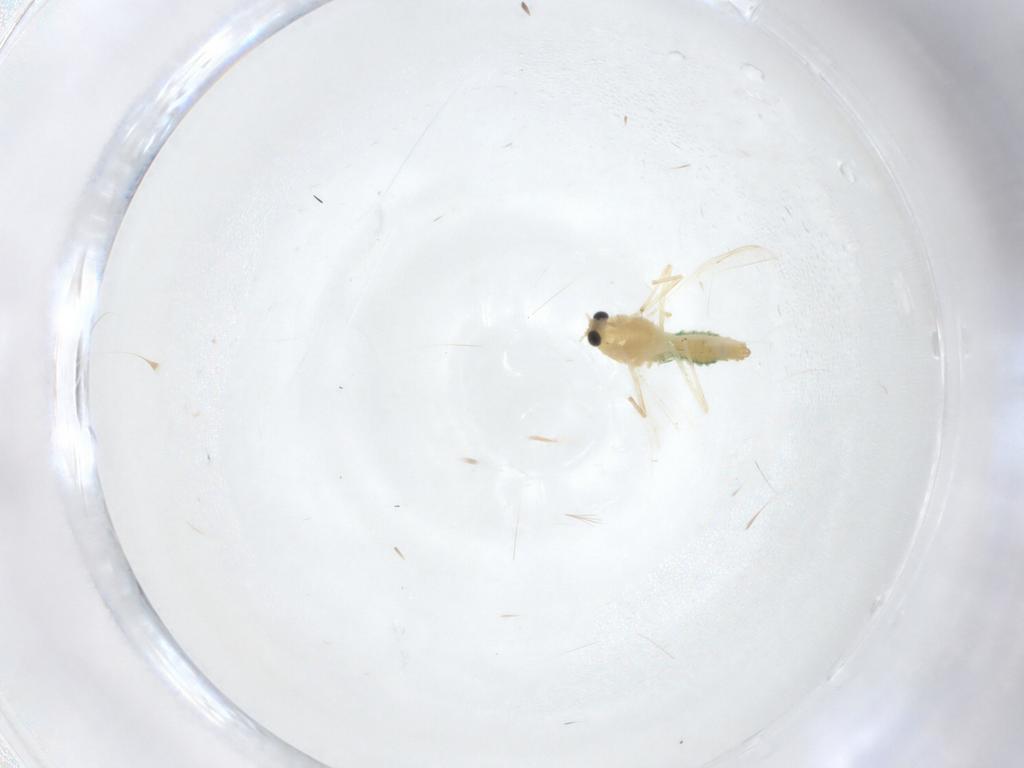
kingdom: Animalia
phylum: Arthropoda
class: Insecta
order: Diptera
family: Chironomidae
